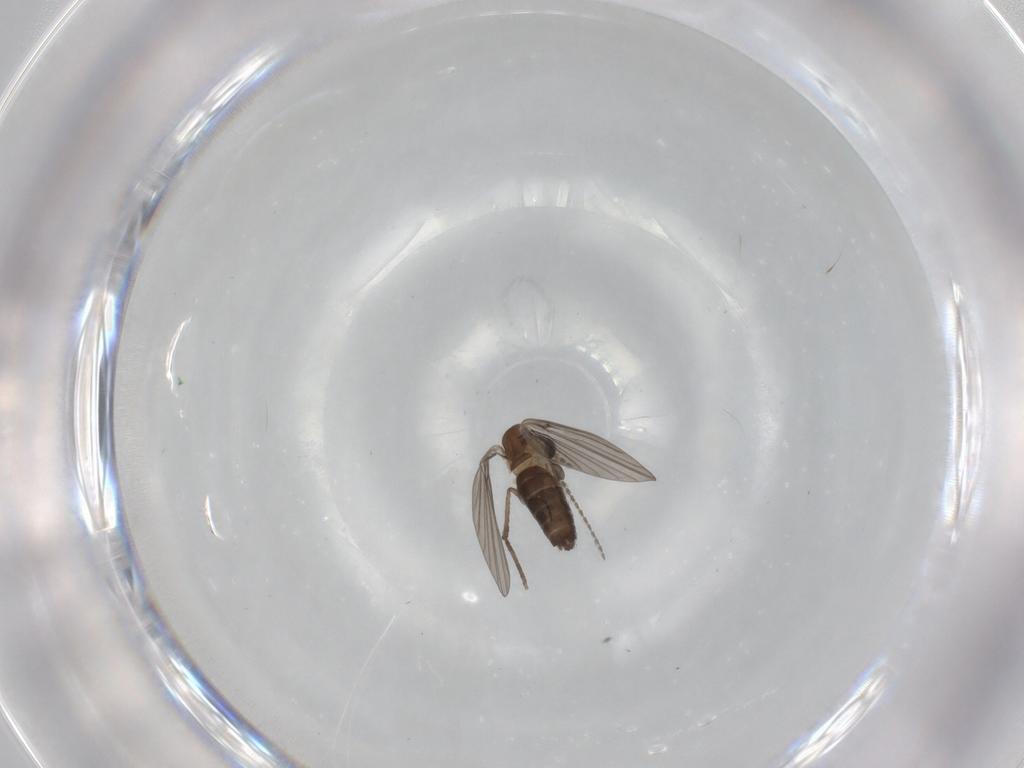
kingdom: Animalia
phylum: Arthropoda
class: Insecta
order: Diptera
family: Psychodidae
